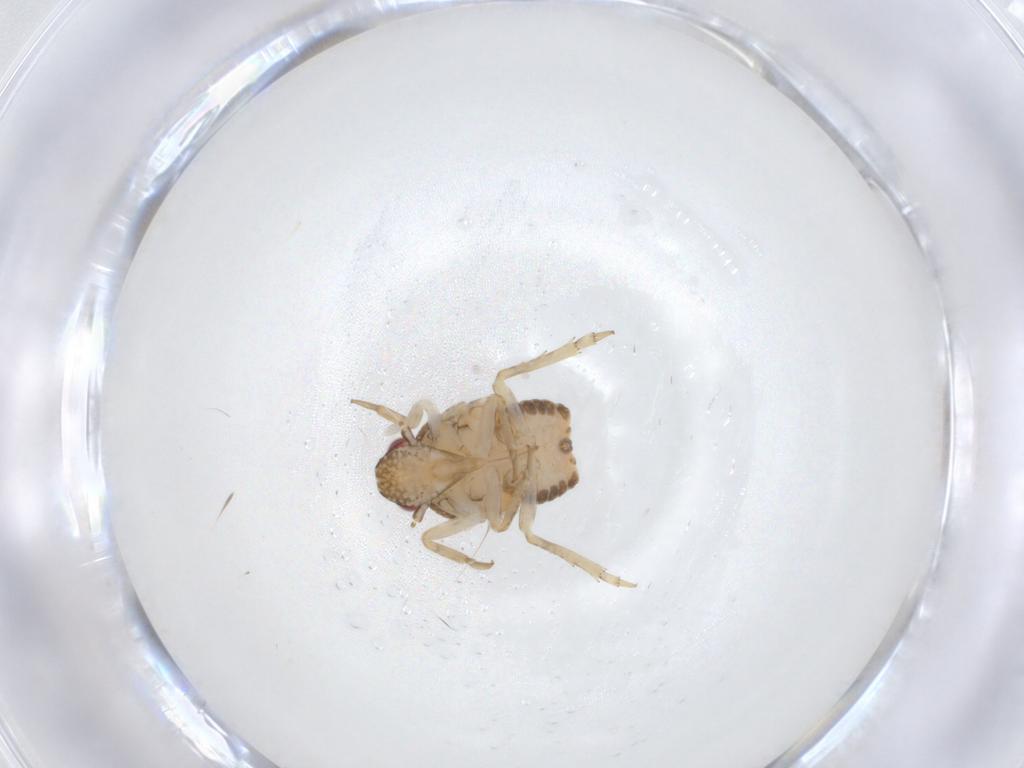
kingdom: Animalia
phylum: Arthropoda
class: Insecta
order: Hemiptera
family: Flatidae
